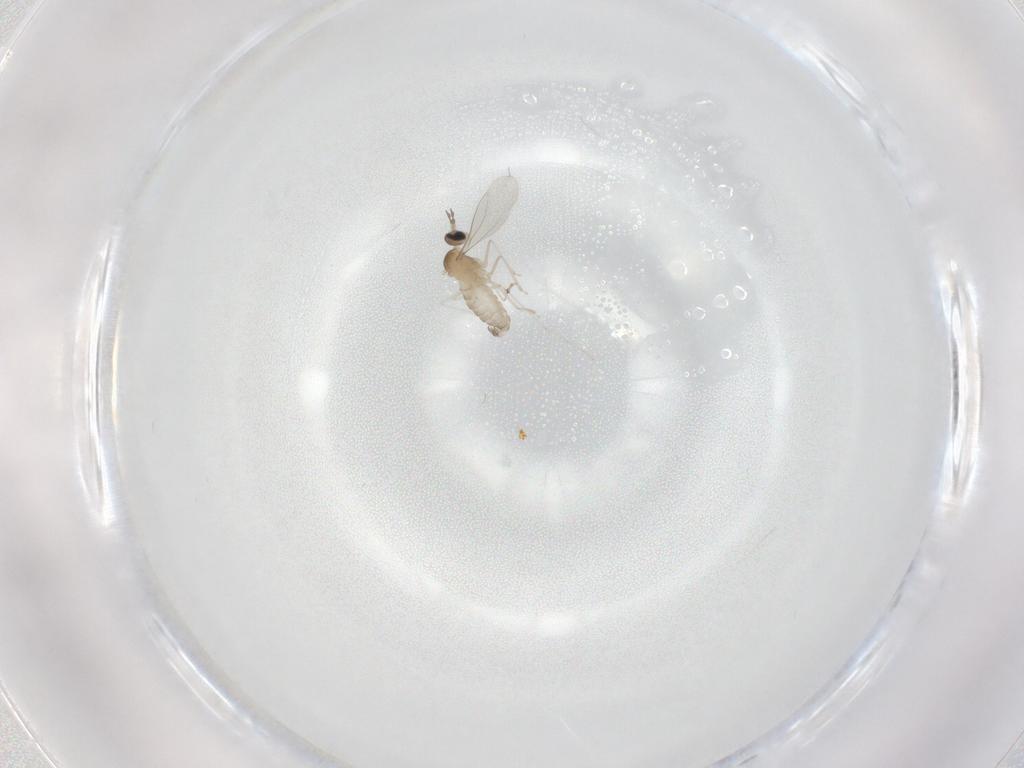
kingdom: Animalia
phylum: Arthropoda
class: Insecta
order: Diptera
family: Cecidomyiidae
